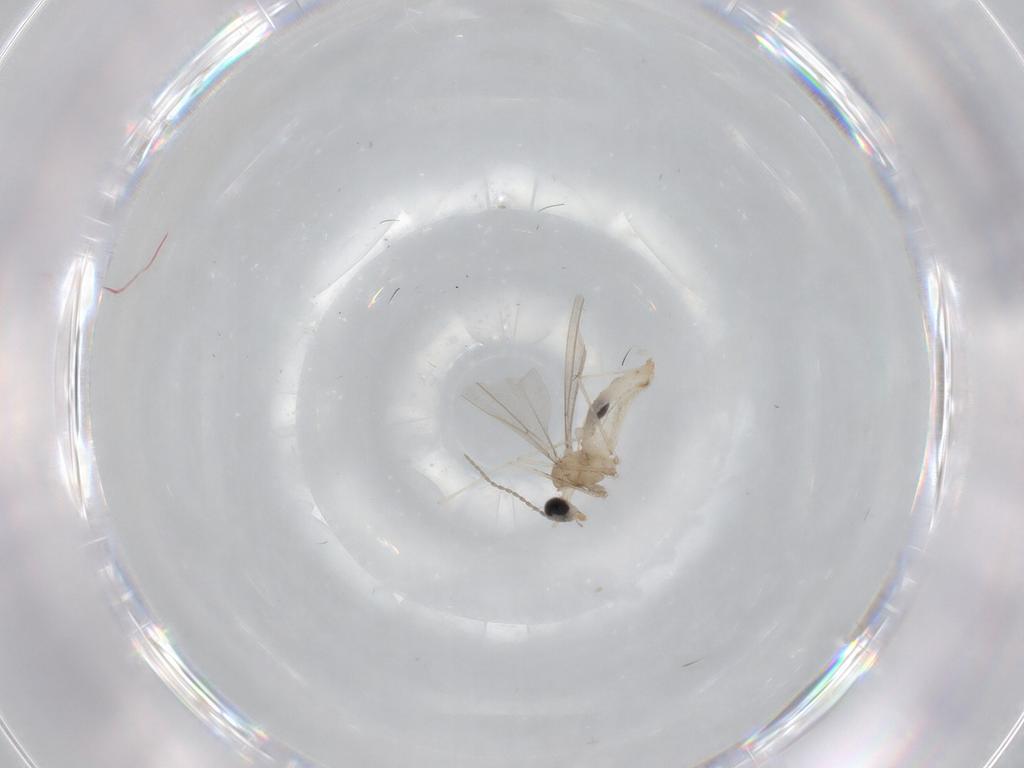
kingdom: Animalia
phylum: Arthropoda
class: Insecta
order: Diptera
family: Cecidomyiidae
